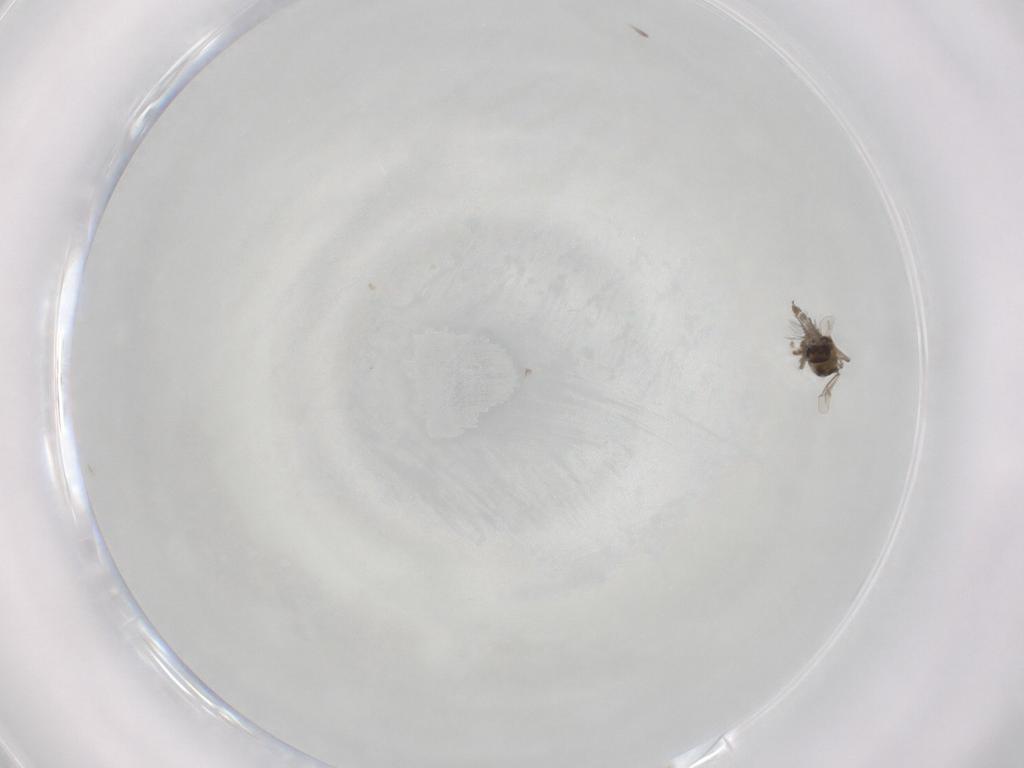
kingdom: Animalia
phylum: Arthropoda
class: Insecta
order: Diptera
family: Chironomidae
